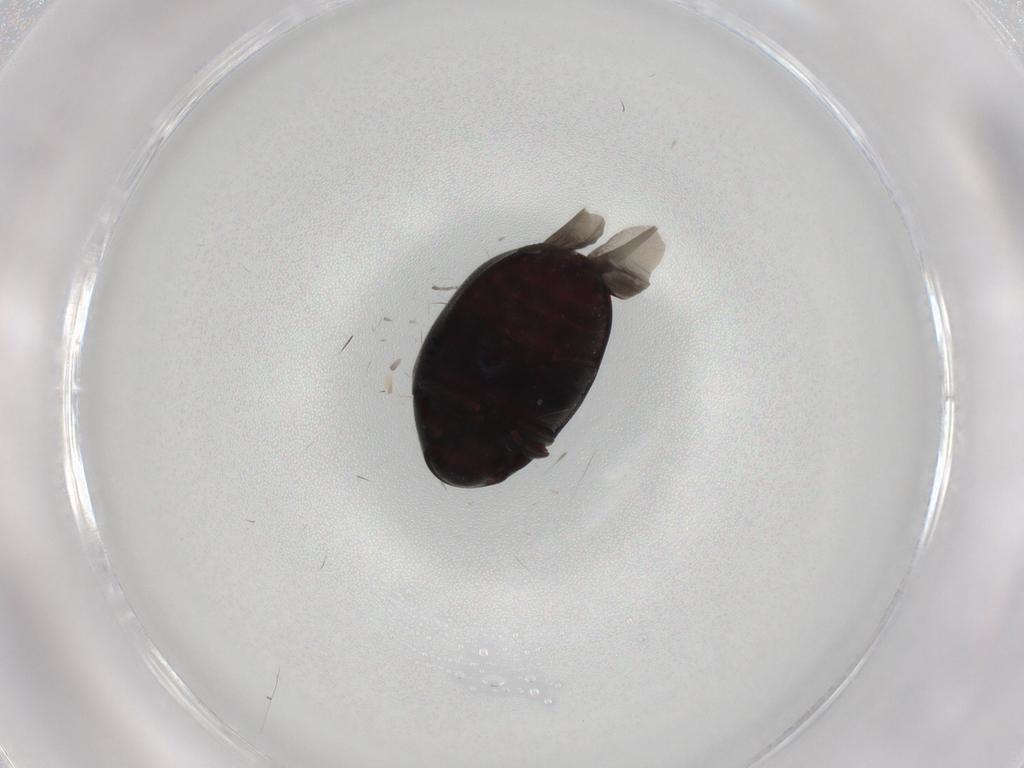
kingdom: Animalia
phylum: Arthropoda
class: Insecta
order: Coleoptera
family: Ptinidae
